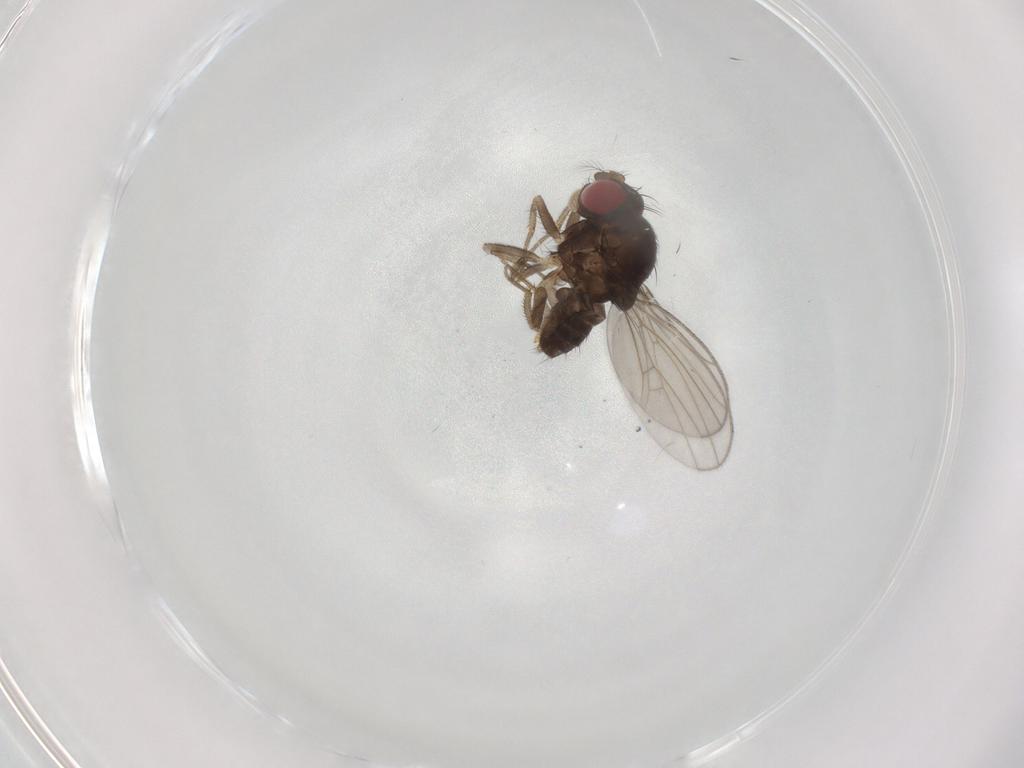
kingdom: Animalia
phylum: Arthropoda
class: Insecta
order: Diptera
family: Drosophilidae
